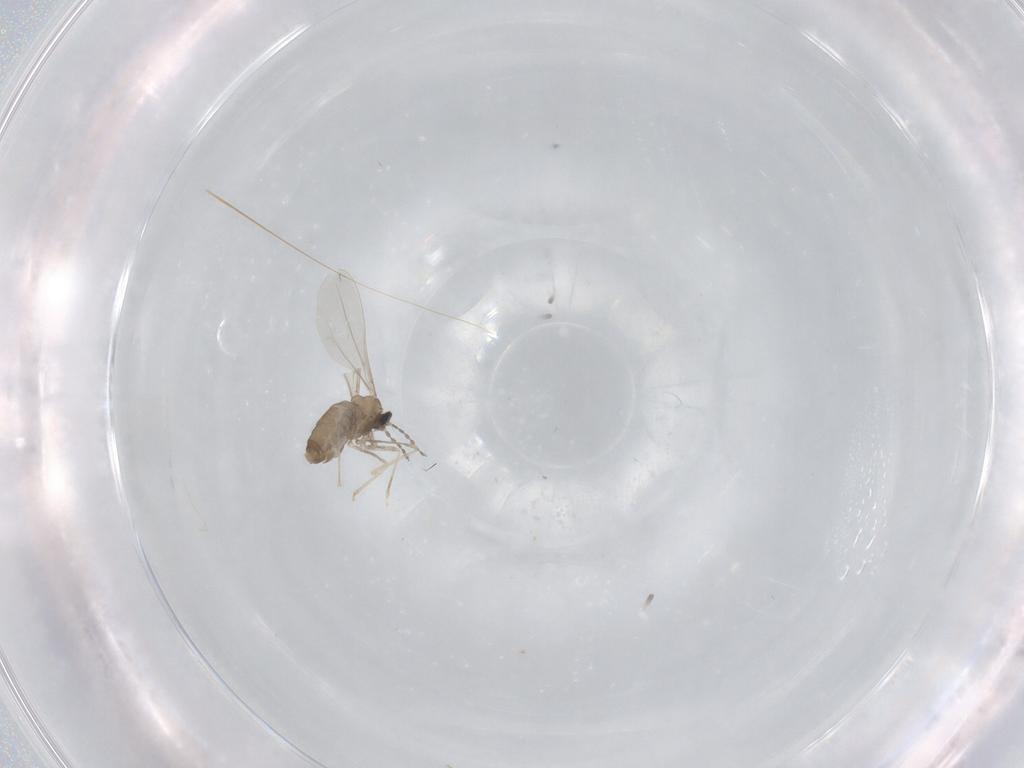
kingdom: Animalia
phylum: Arthropoda
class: Insecta
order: Diptera
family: Cecidomyiidae
